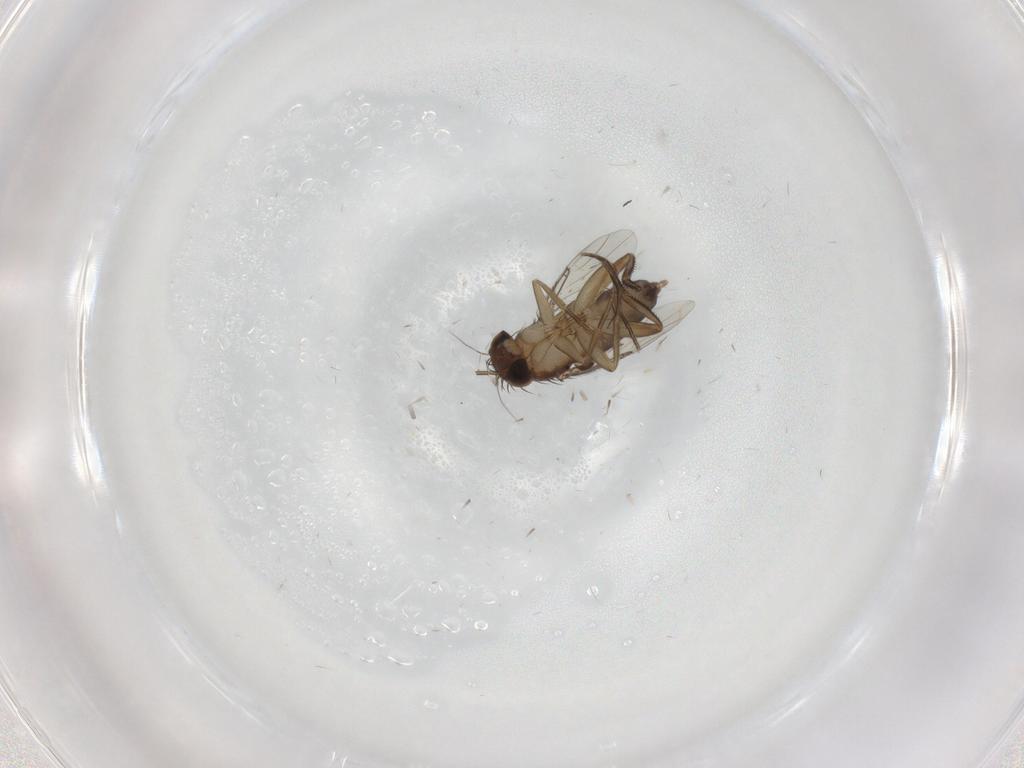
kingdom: Animalia
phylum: Arthropoda
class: Insecta
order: Diptera
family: Phoridae
